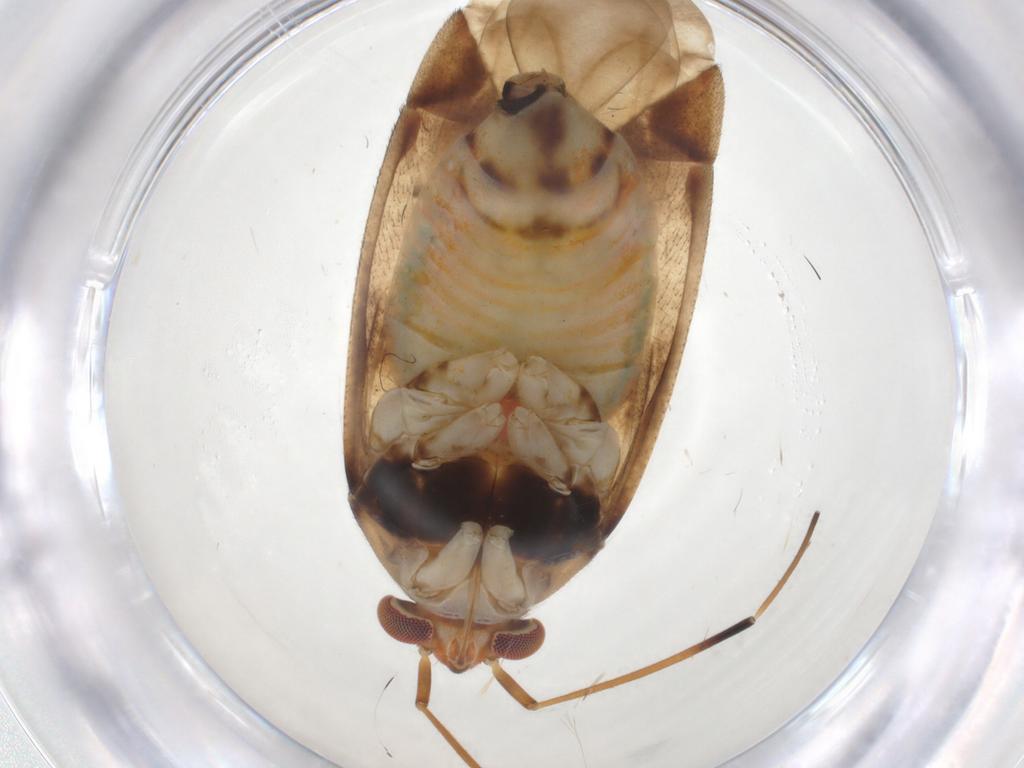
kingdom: Animalia
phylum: Arthropoda
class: Insecta
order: Hemiptera
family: Miridae
